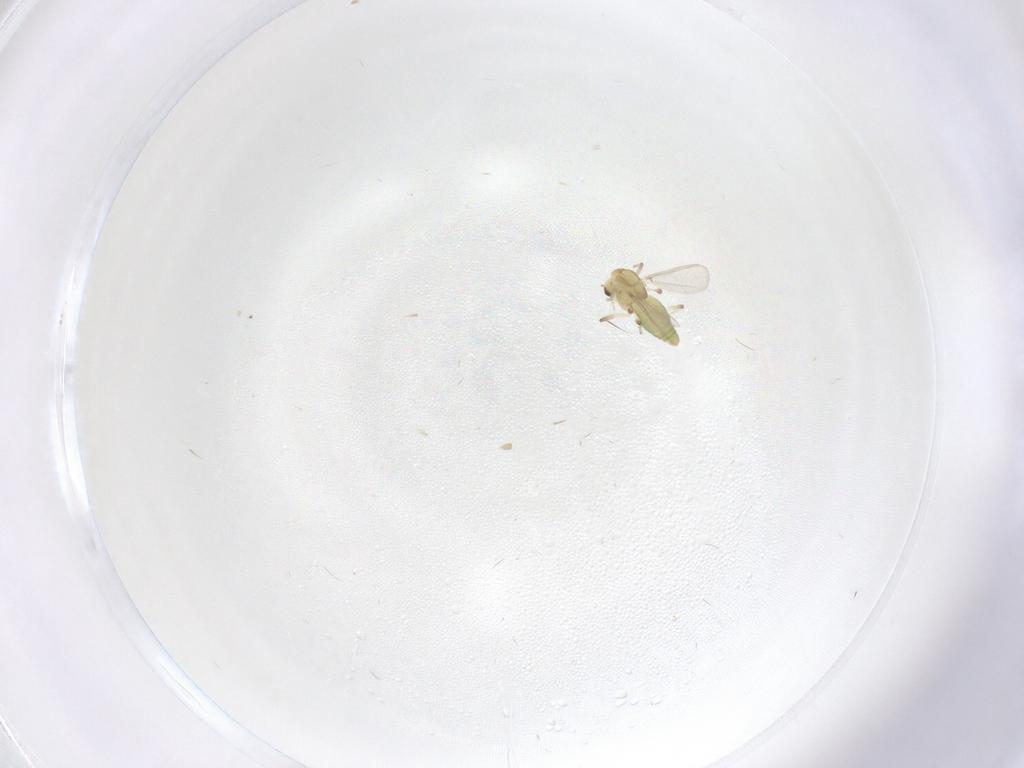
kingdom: Animalia
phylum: Arthropoda
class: Insecta
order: Diptera
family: Chironomidae
